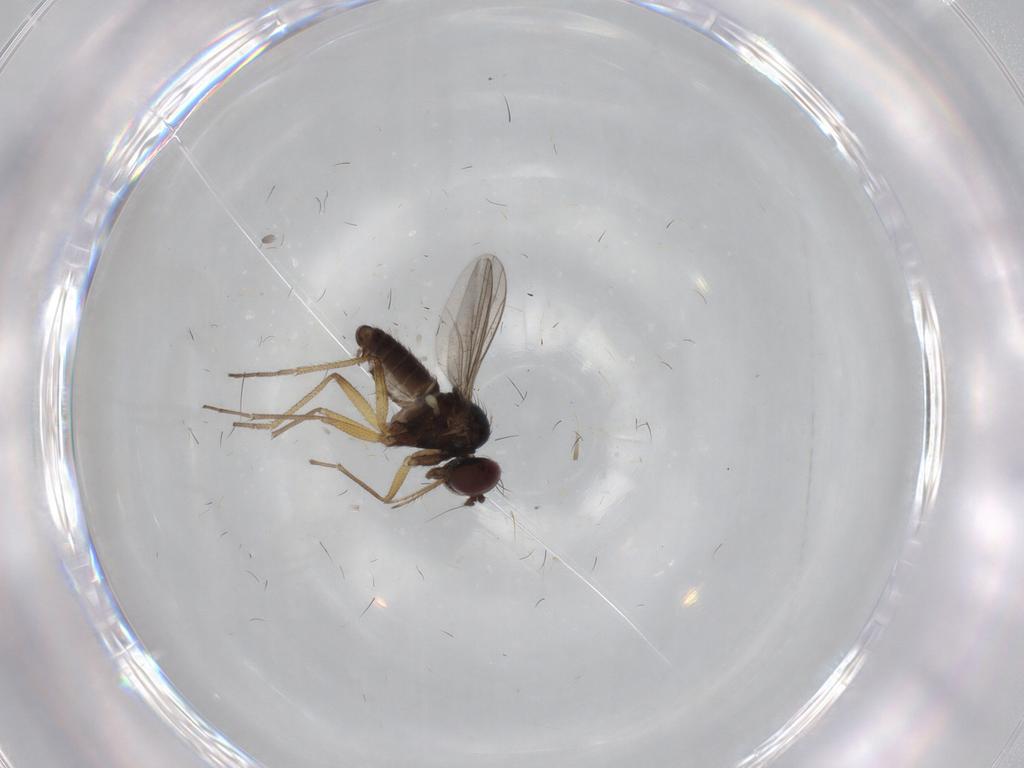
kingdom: Animalia
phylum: Arthropoda
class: Insecta
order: Diptera
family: Dolichopodidae
